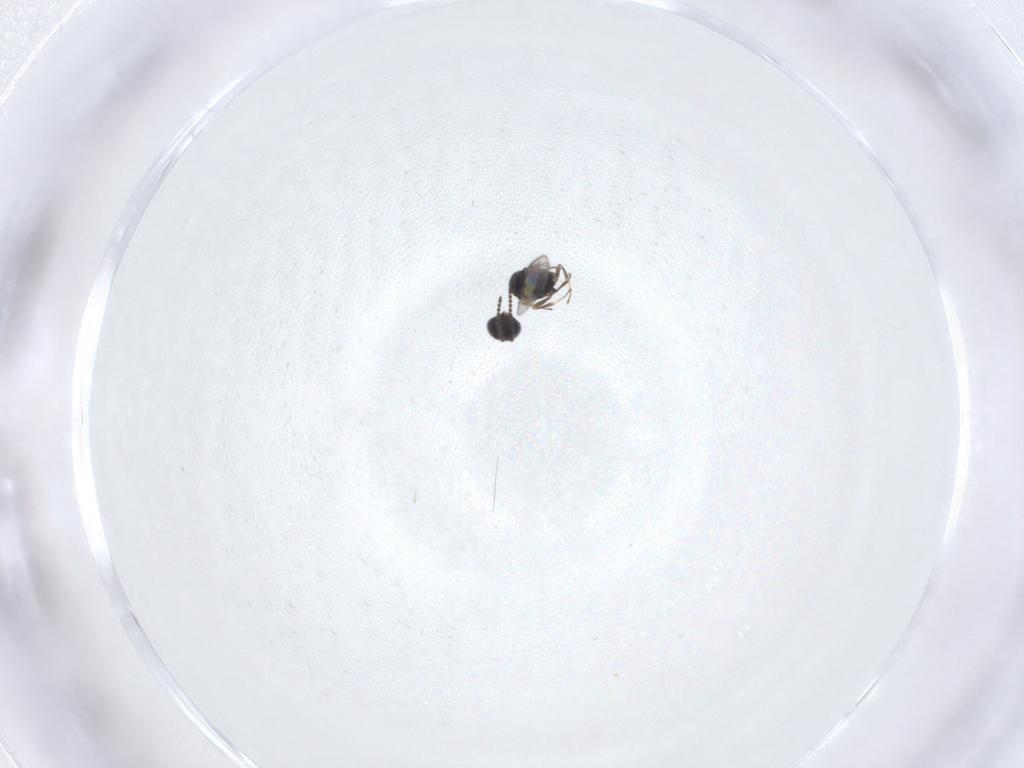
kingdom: Animalia
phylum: Arthropoda
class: Insecta
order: Hymenoptera
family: Scelionidae
